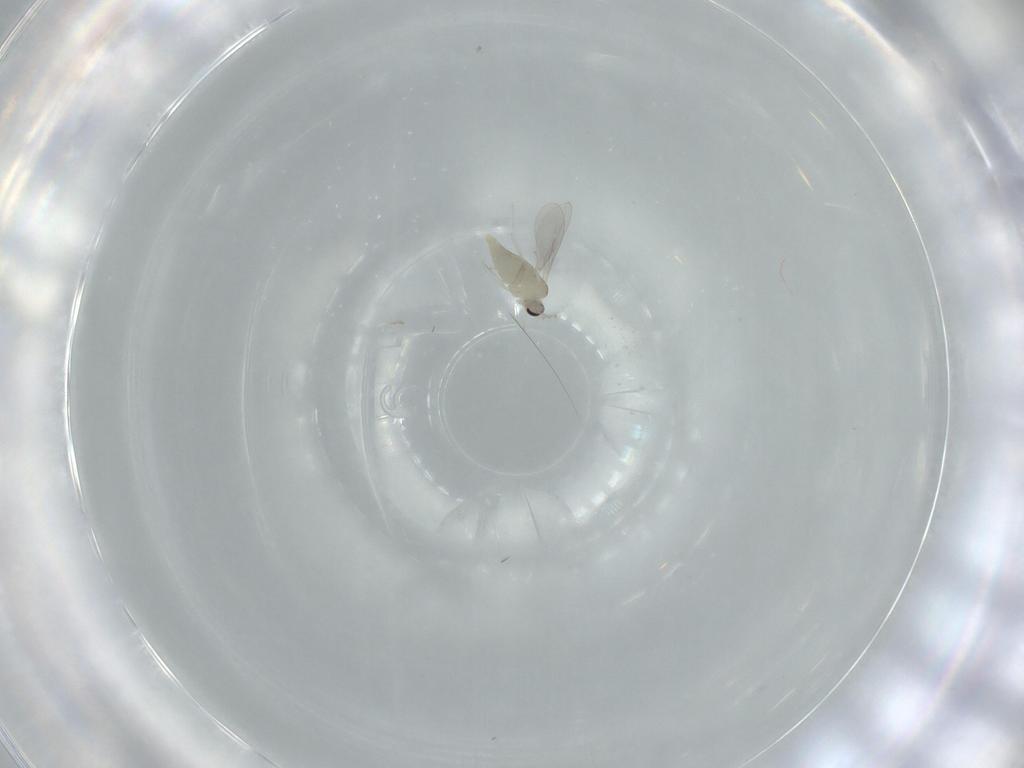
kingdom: Animalia
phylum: Arthropoda
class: Insecta
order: Diptera
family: Cecidomyiidae
